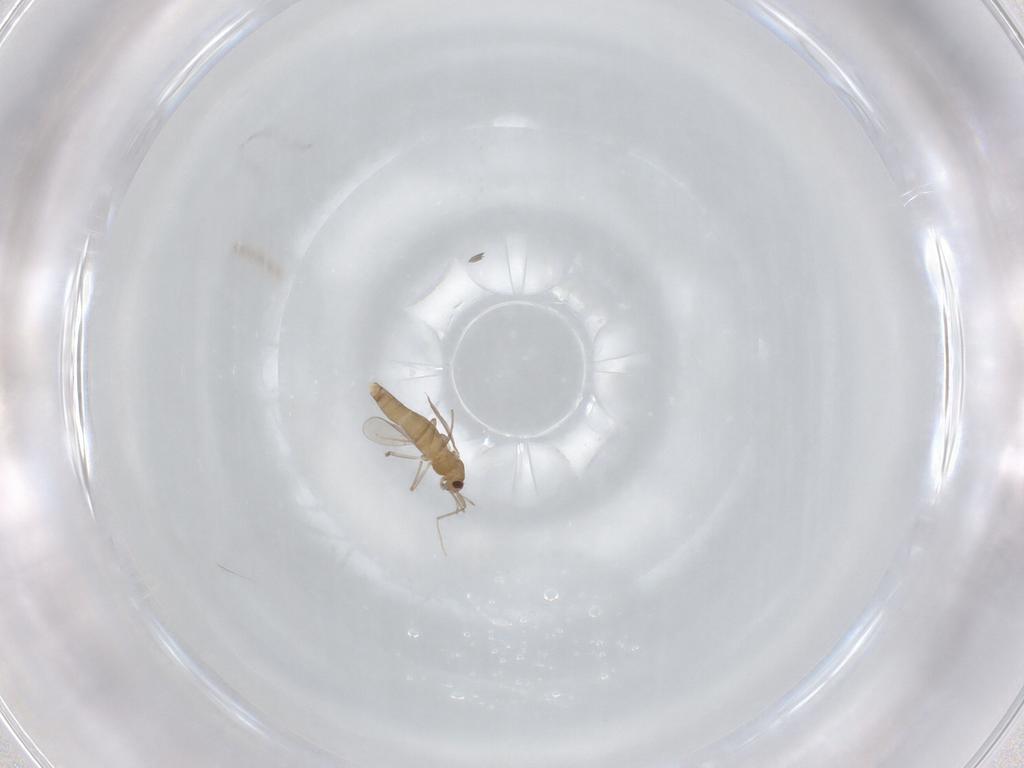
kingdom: Animalia
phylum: Arthropoda
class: Insecta
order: Diptera
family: Chironomidae
